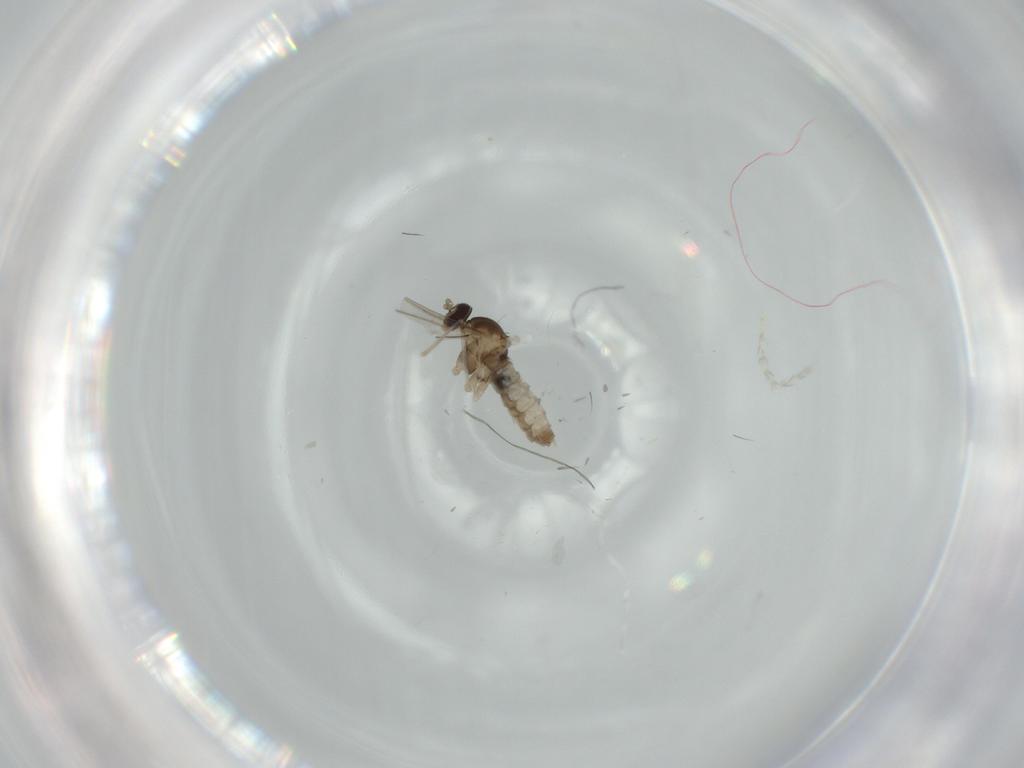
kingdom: Animalia
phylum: Arthropoda
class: Insecta
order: Diptera
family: Cecidomyiidae
